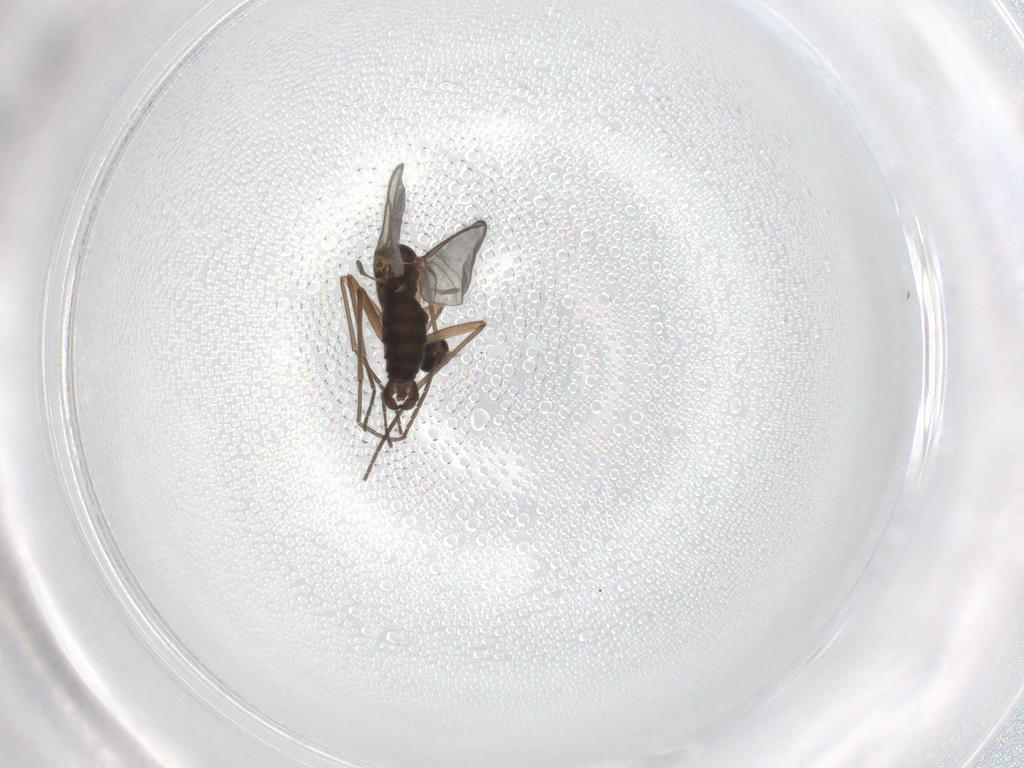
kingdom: Animalia
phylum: Arthropoda
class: Insecta
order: Diptera
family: Sciaridae
